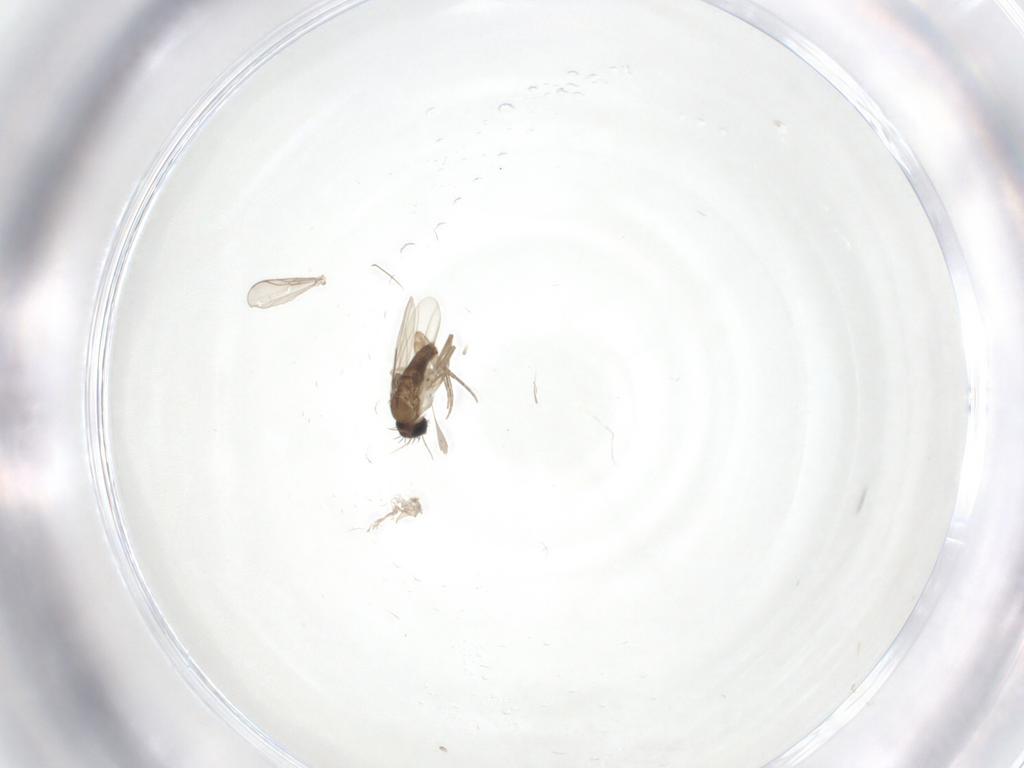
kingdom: Animalia
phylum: Arthropoda
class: Insecta
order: Diptera
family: Phoridae
